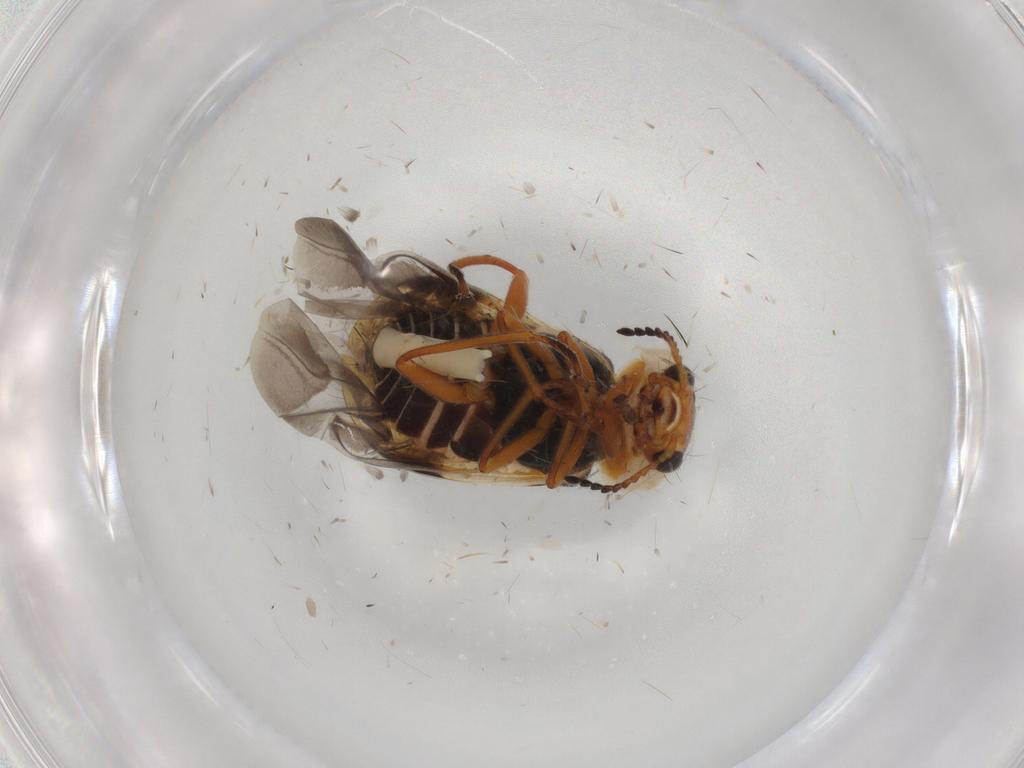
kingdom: Animalia
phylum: Arthropoda
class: Insecta
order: Coleoptera
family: Melyridae
